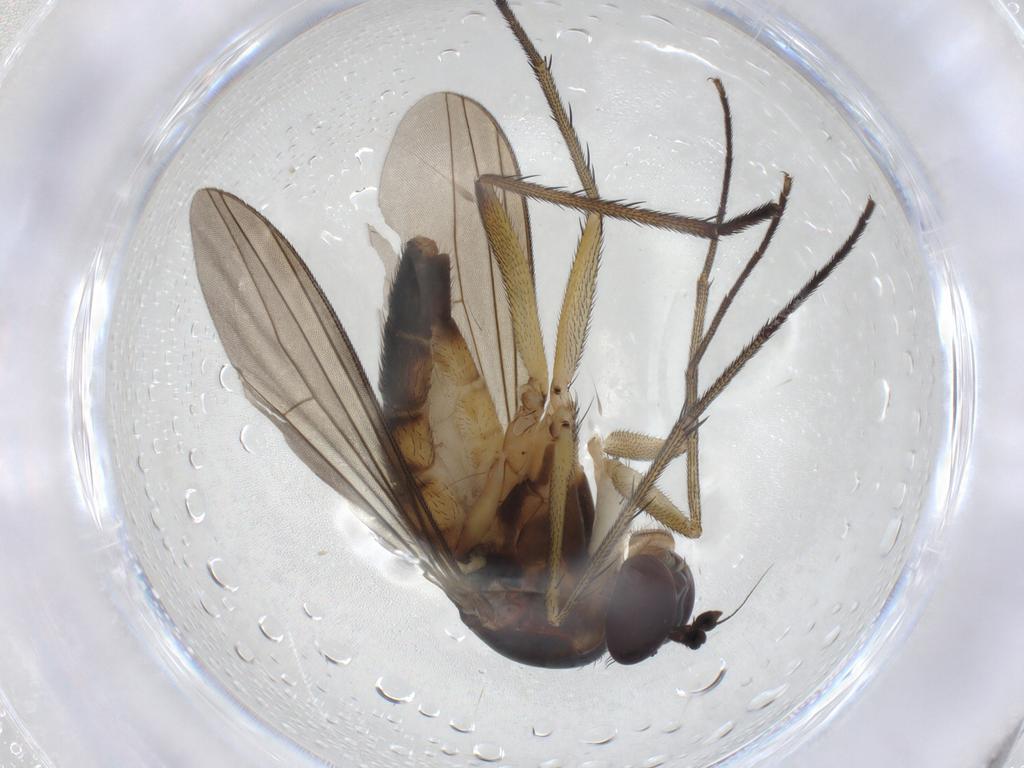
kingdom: Animalia
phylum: Arthropoda
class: Insecta
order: Diptera
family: Dolichopodidae
